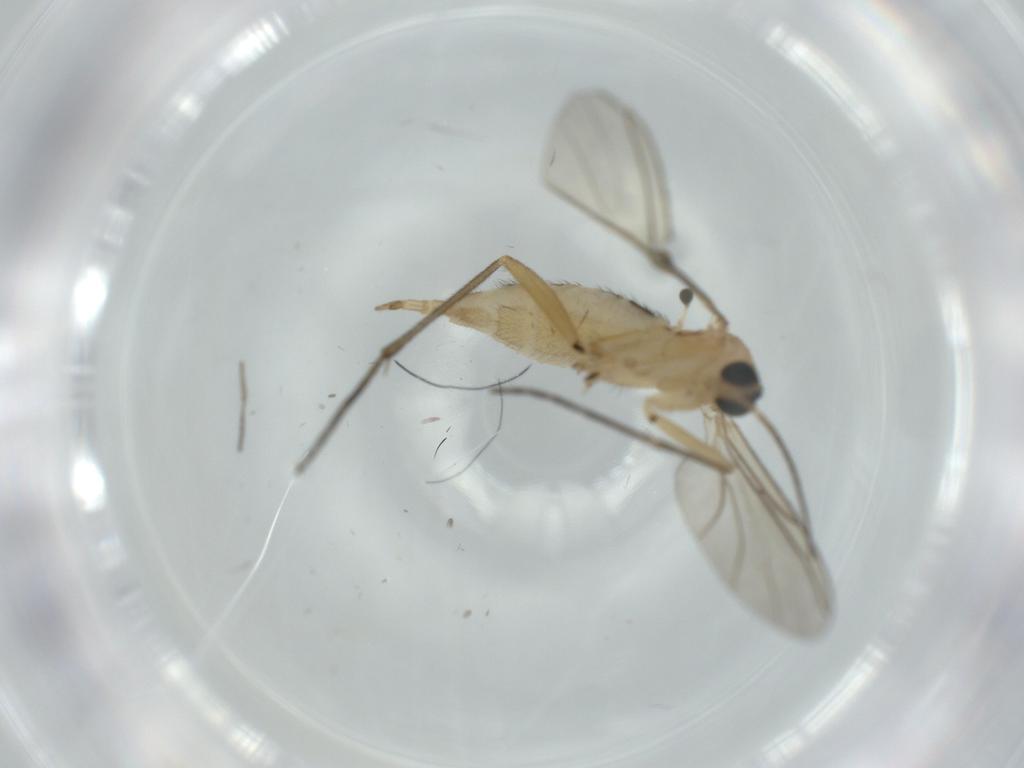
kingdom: Animalia
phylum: Arthropoda
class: Insecta
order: Diptera
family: Sciaridae
